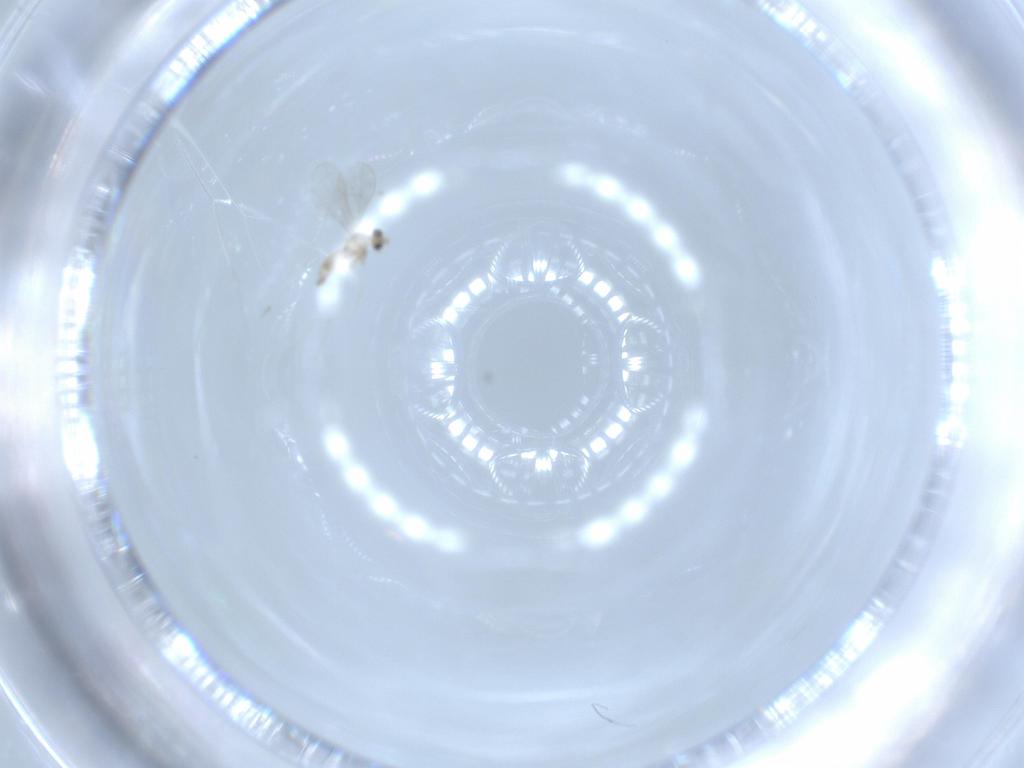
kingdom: Animalia
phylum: Arthropoda
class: Insecta
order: Diptera
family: Cecidomyiidae
